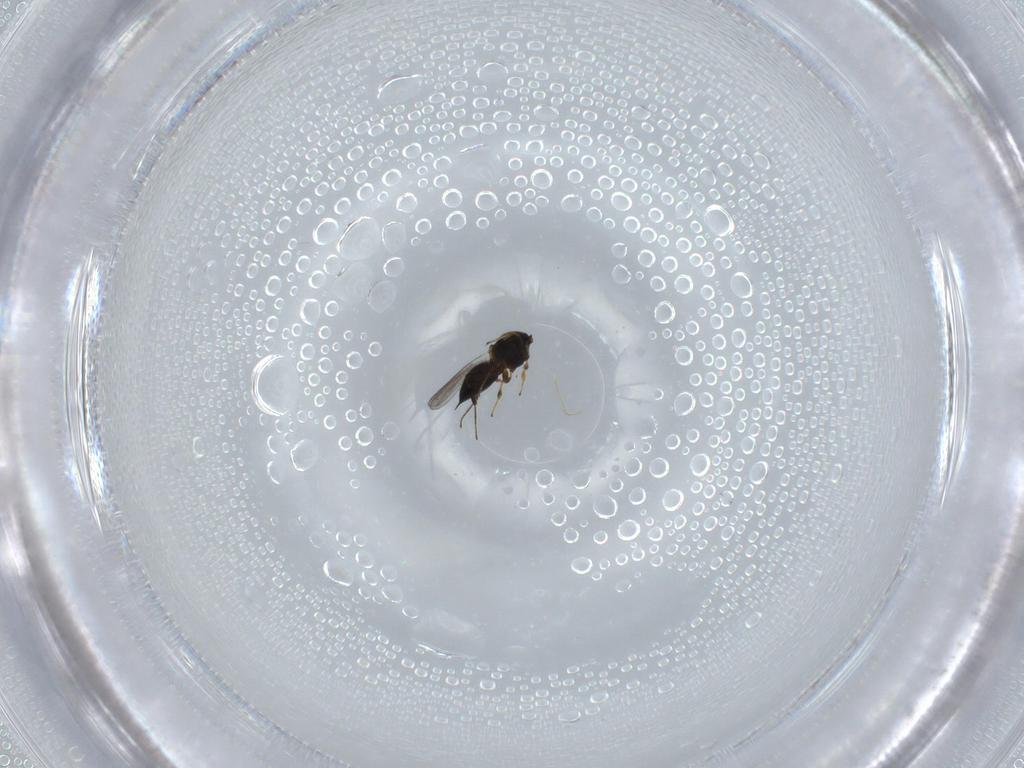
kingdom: Animalia
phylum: Arthropoda
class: Insecta
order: Hymenoptera
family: Platygastridae
